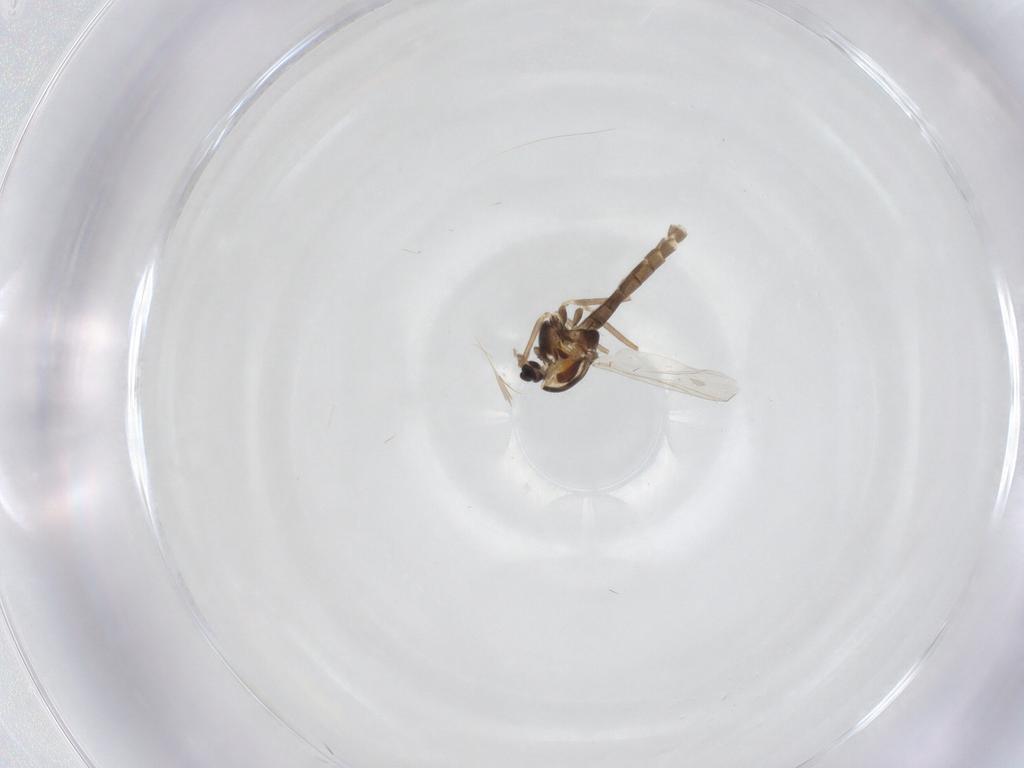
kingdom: Animalia
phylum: Arthropoda
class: Insecta
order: Diptera
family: Chironomidae
